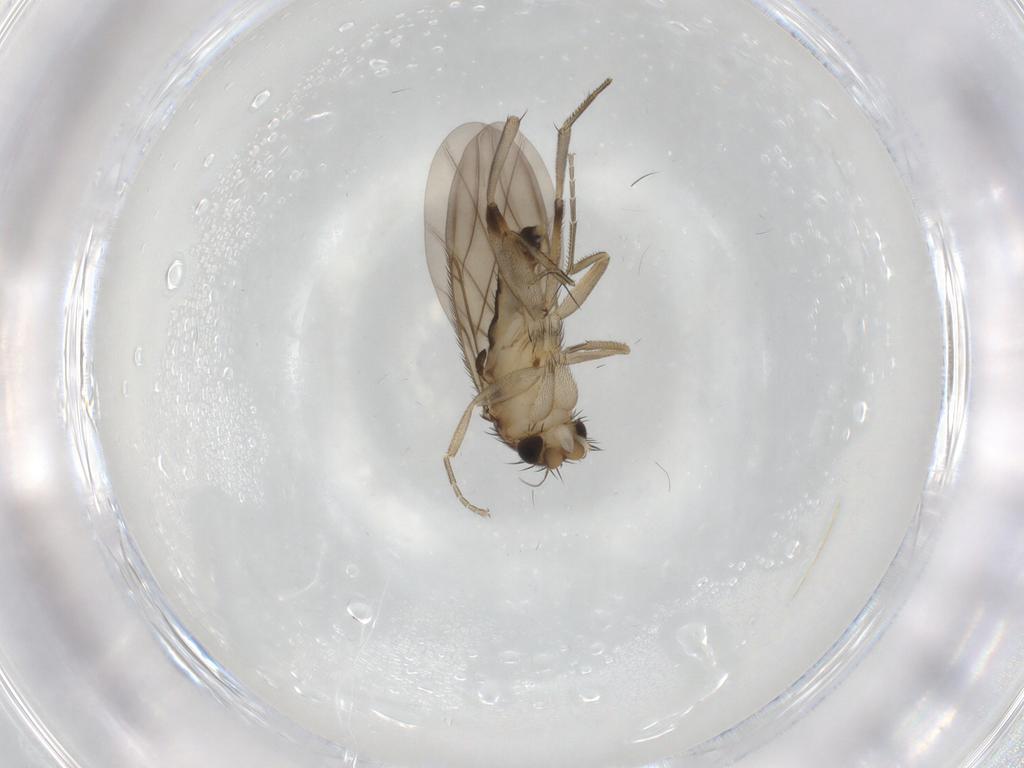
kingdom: Animalia
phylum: Arthropoda
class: Insecta
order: Diptera
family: Phoridae
